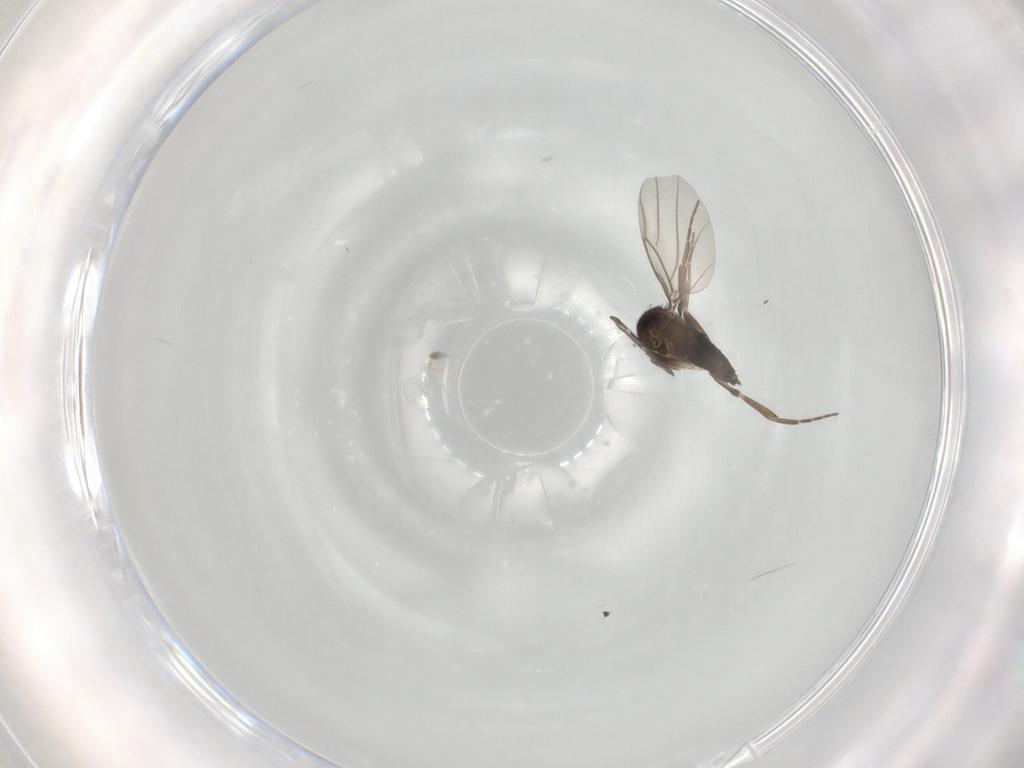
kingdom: Animalia
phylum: Arthropoda
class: Insecta
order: Diptera
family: Phoridae
